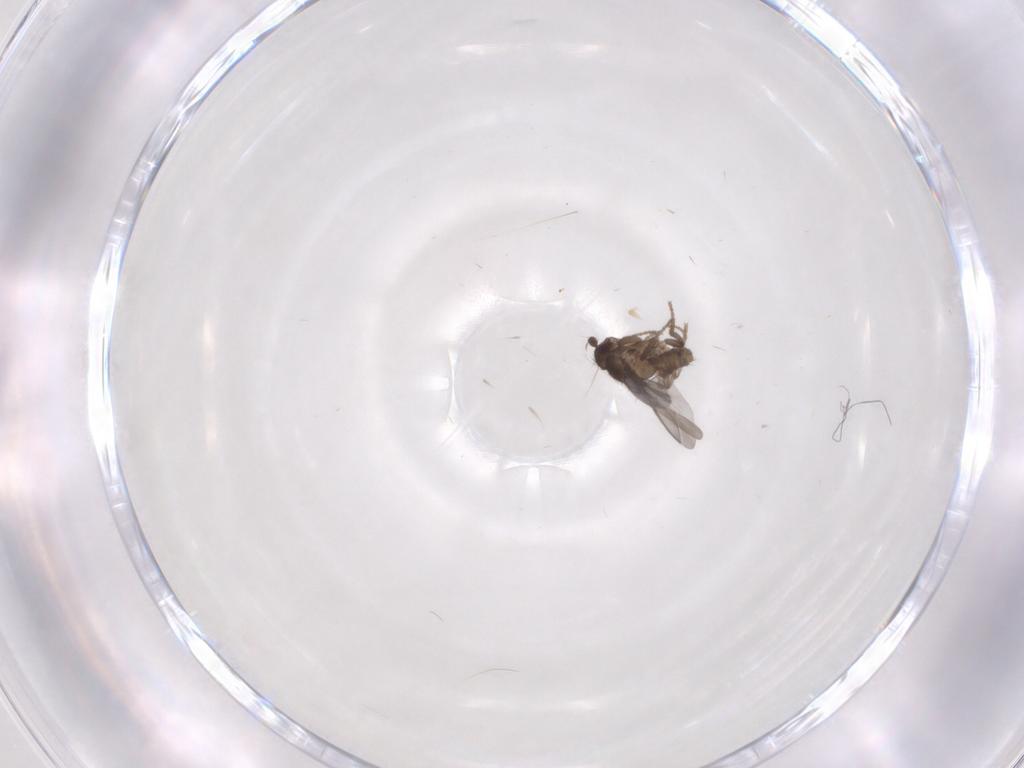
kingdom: Animalia
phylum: Arthropoda
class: Insecta
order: Diptera
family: Sphaeroceridae
